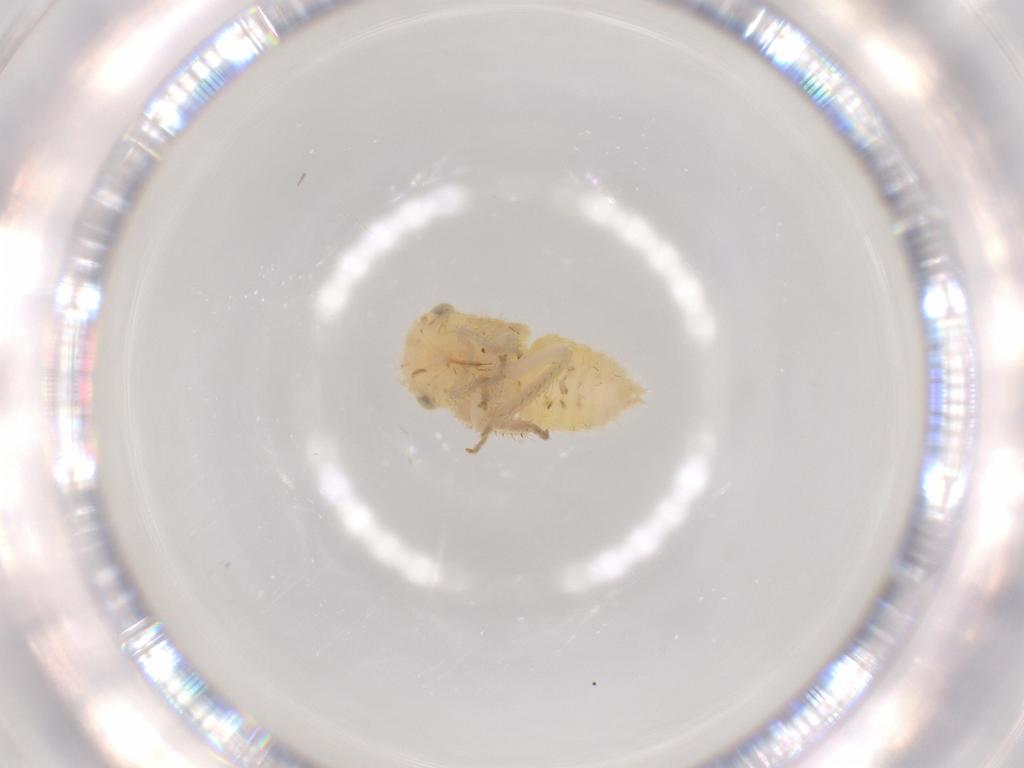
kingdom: Animalia
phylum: Arthropoda
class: Insecta
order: Hemiptera
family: Cicadellidae
